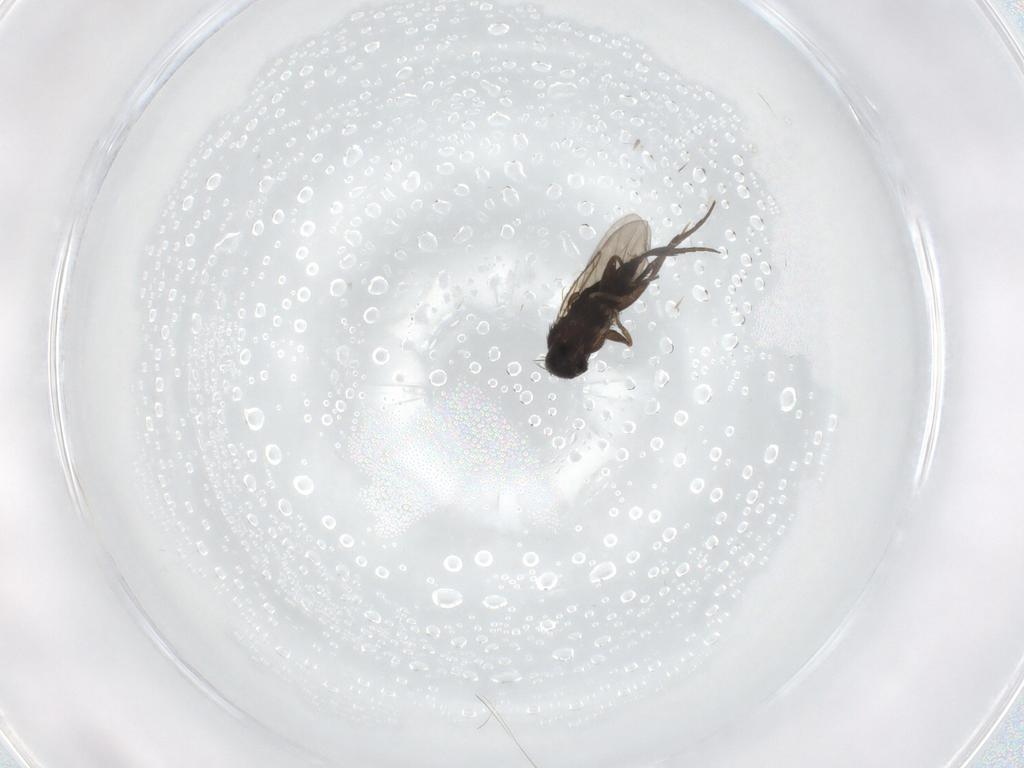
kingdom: Animalia
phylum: Arthropoda
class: Insecta
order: Diptera
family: Phoridae
